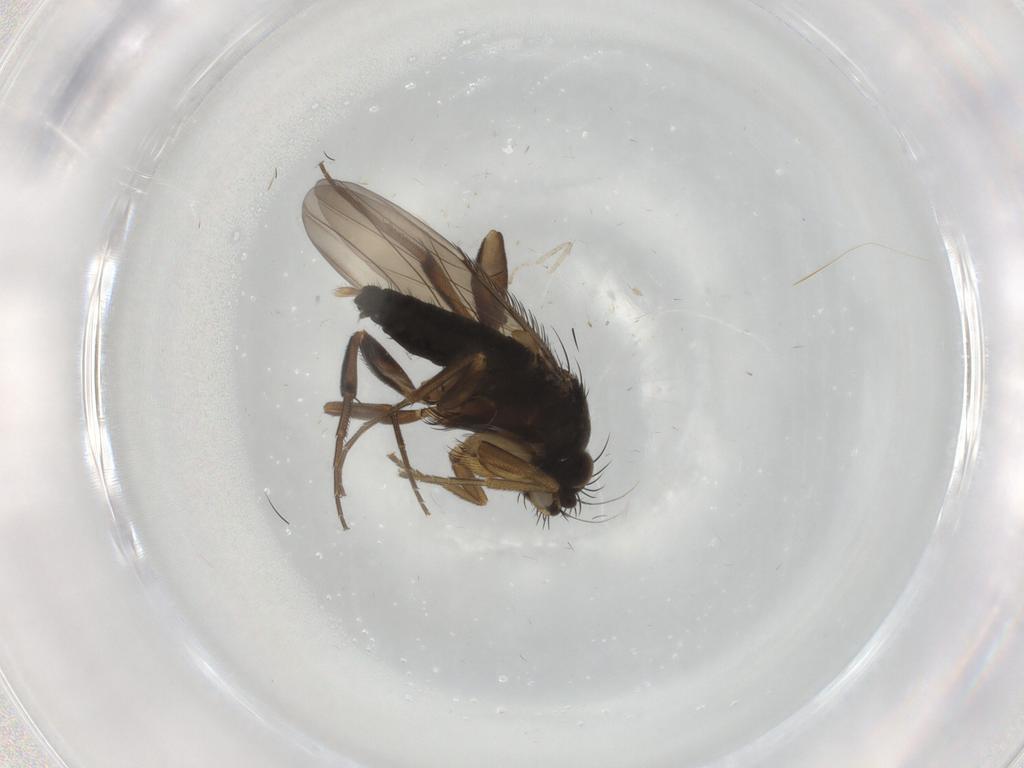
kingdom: Animalia
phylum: Arthropoda
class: Insecta
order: Diptera
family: Phoridae
